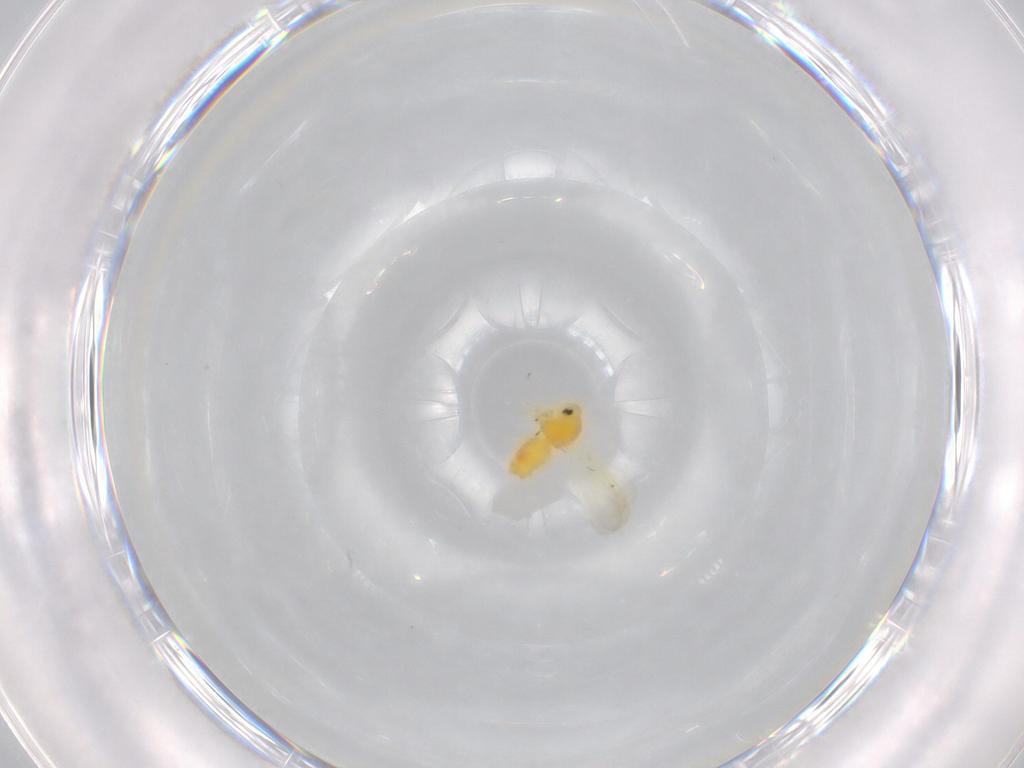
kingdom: Animalia
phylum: Arthropoda
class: Insecta
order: Hemiptera
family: Aleyrodidae
